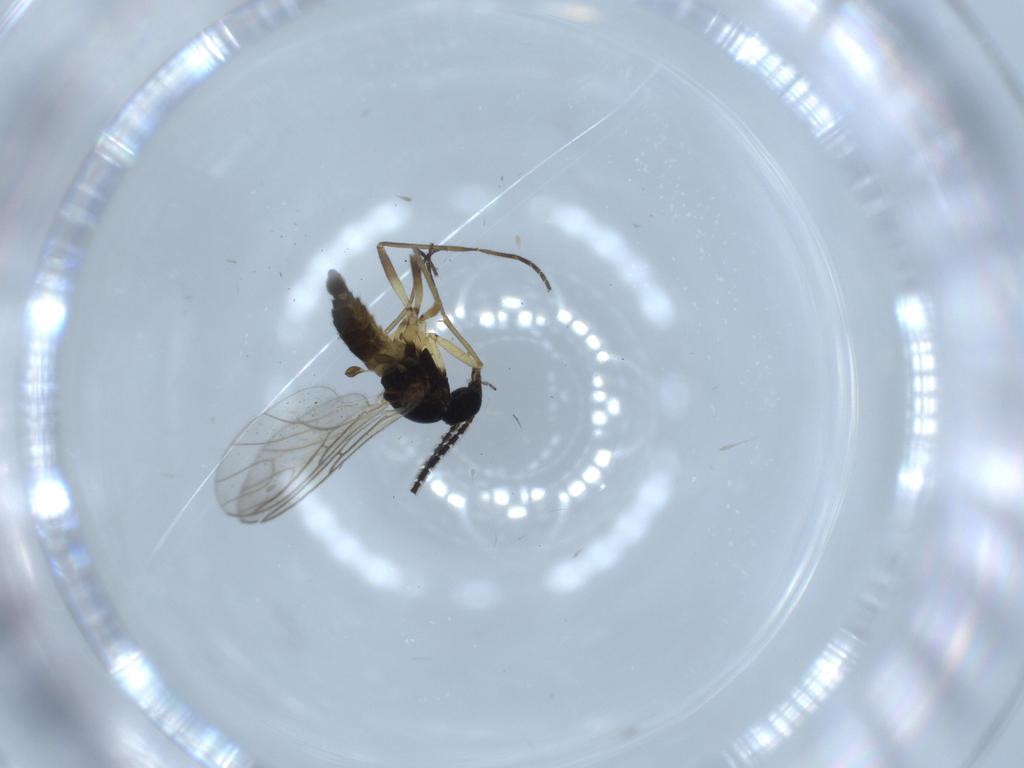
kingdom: Animalia
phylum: Arthropoda
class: Insecta
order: Diptera
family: Sciaridae
